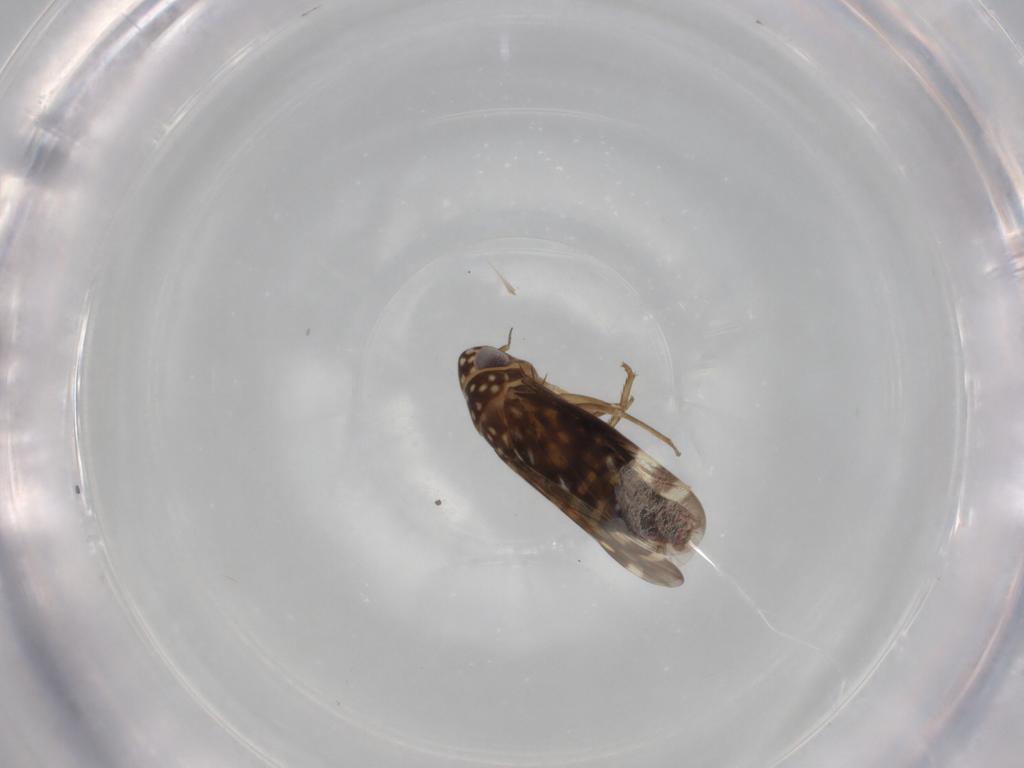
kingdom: Animalia
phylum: Arthropoda
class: Insecta
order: Hemiptera
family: Cicadellidae
